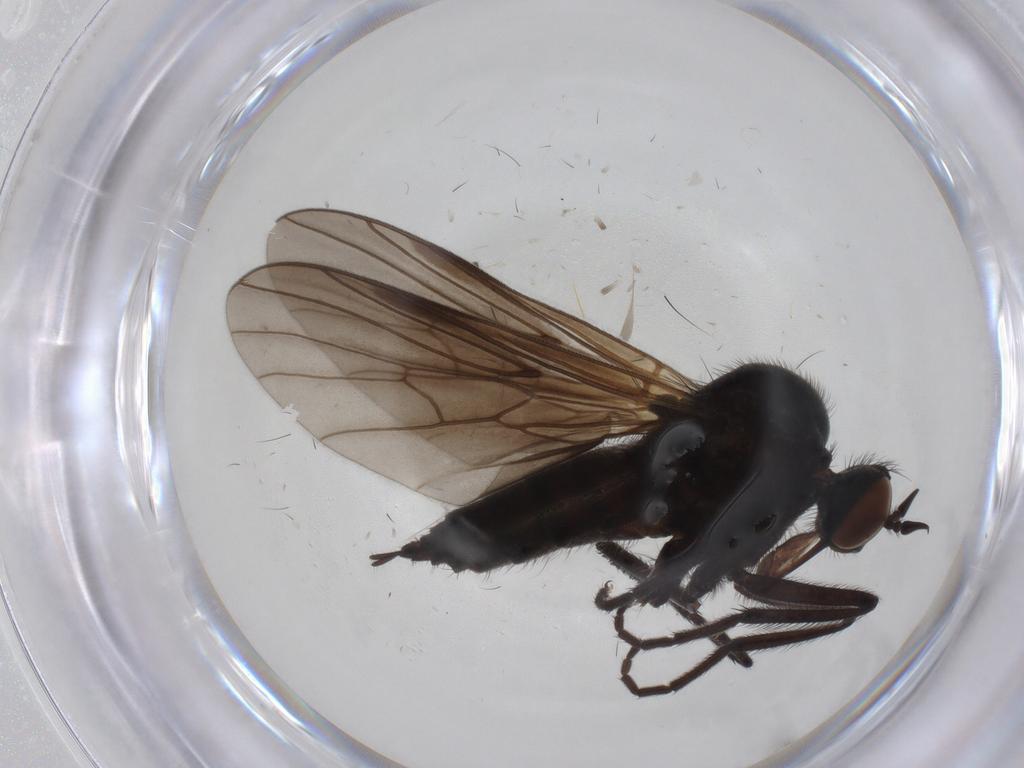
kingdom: Animalia
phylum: Arthropoda
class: Insecta
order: Diptera
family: Empididae
